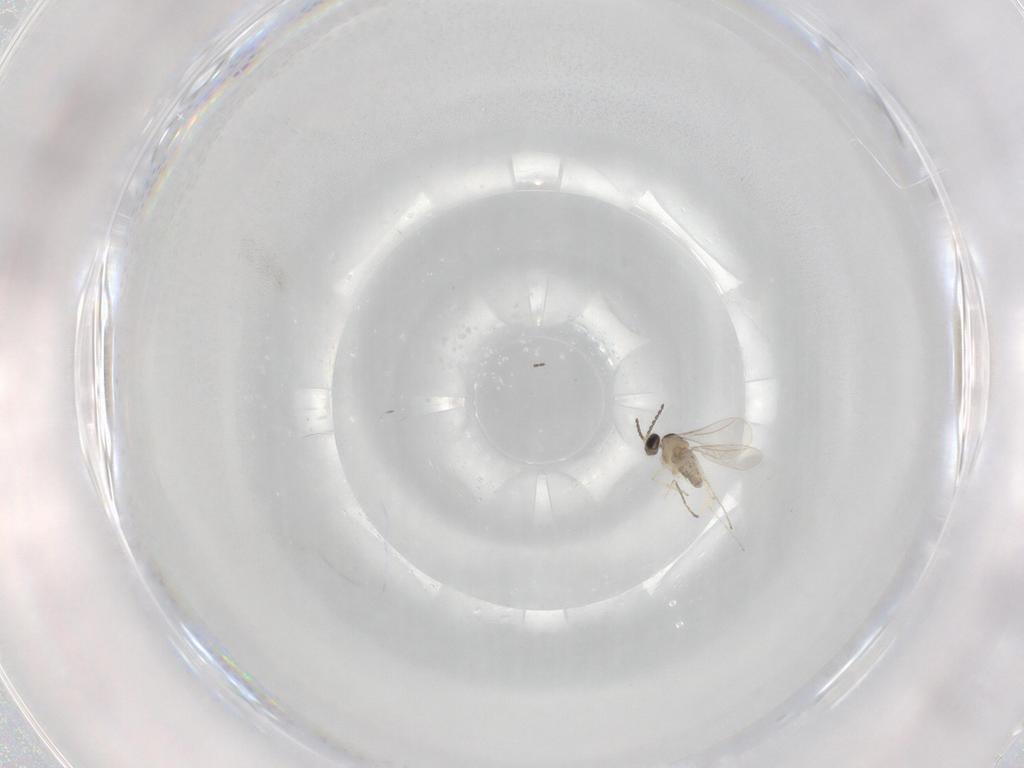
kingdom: Animalia
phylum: Arthropoda
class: Insecta
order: Diptera
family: Cecidomyiidae
